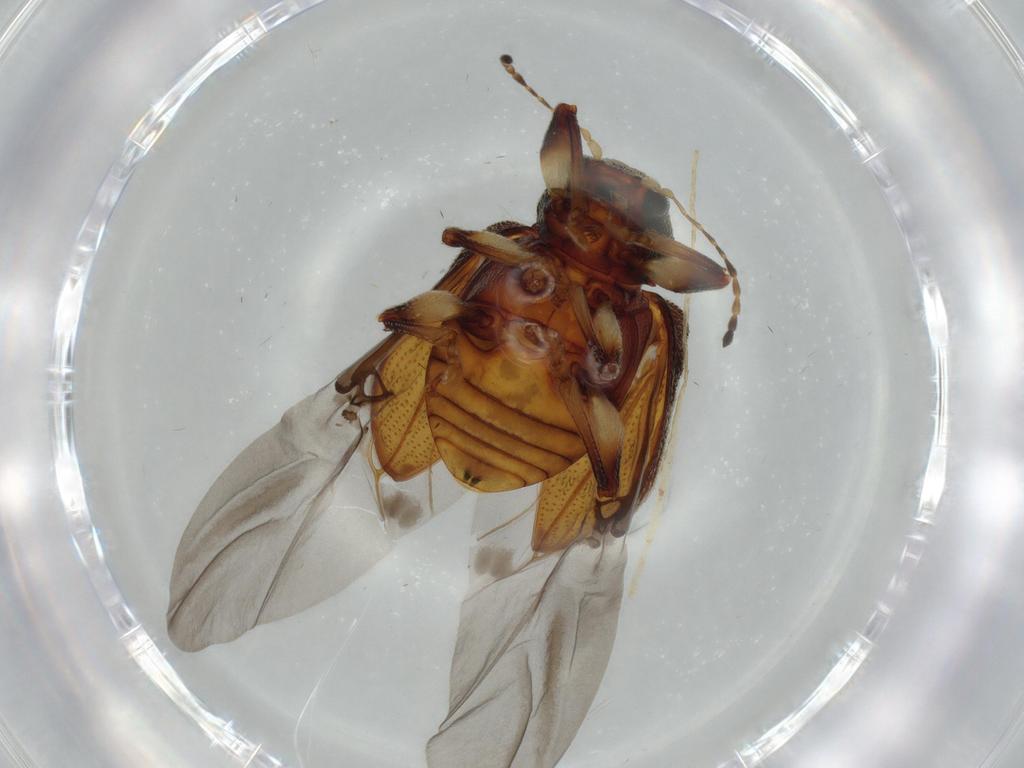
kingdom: Animalia
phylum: Arthropoda
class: Insecta
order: Coleoptera
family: Chrysomelidae
